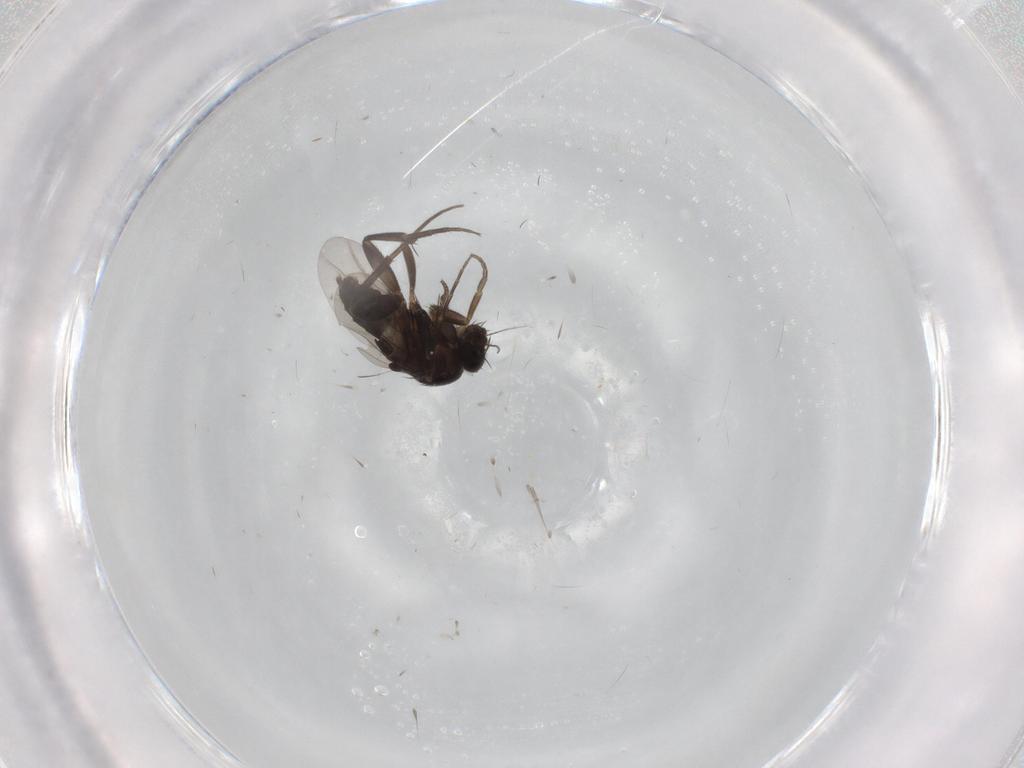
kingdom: Animalia
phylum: Arthropoda
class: Insecta
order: Diptera
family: Phoridae
